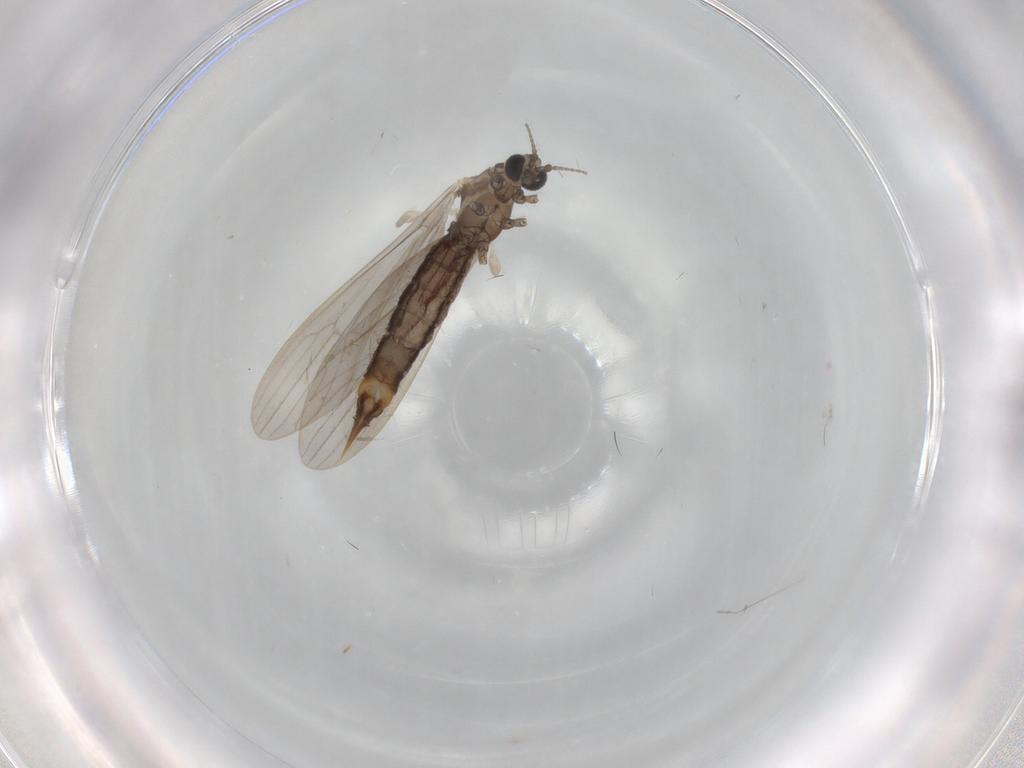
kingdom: Animalia
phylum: Arthropoda
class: Insecta
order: Diptera
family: Limoniidae
